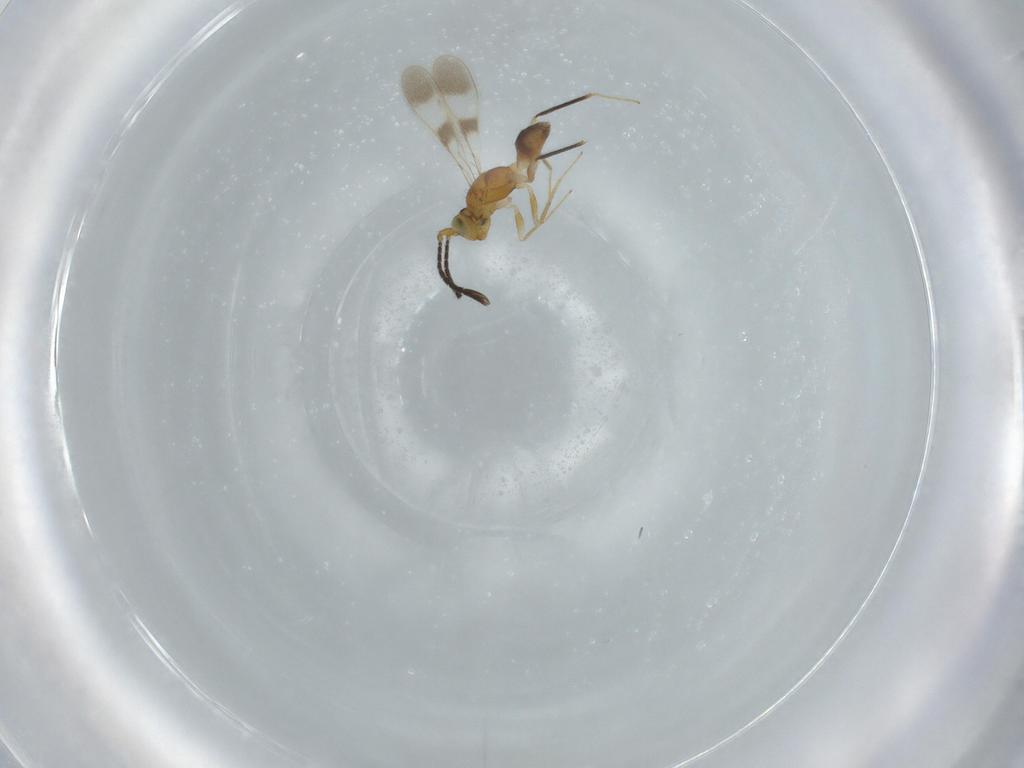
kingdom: Animalia
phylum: Arthropoda
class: Insecta
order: Hymenoptera
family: Mymaridae
